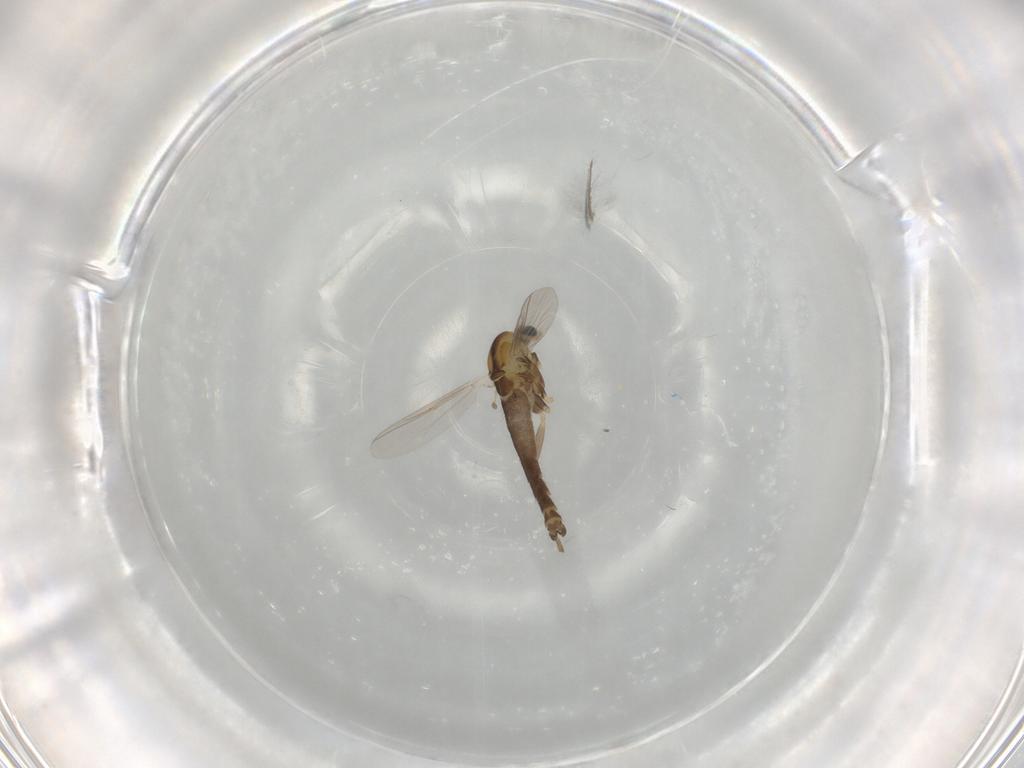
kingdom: Animalia
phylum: Arthropoda
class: Insecta
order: Diptera
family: Chironomidae
